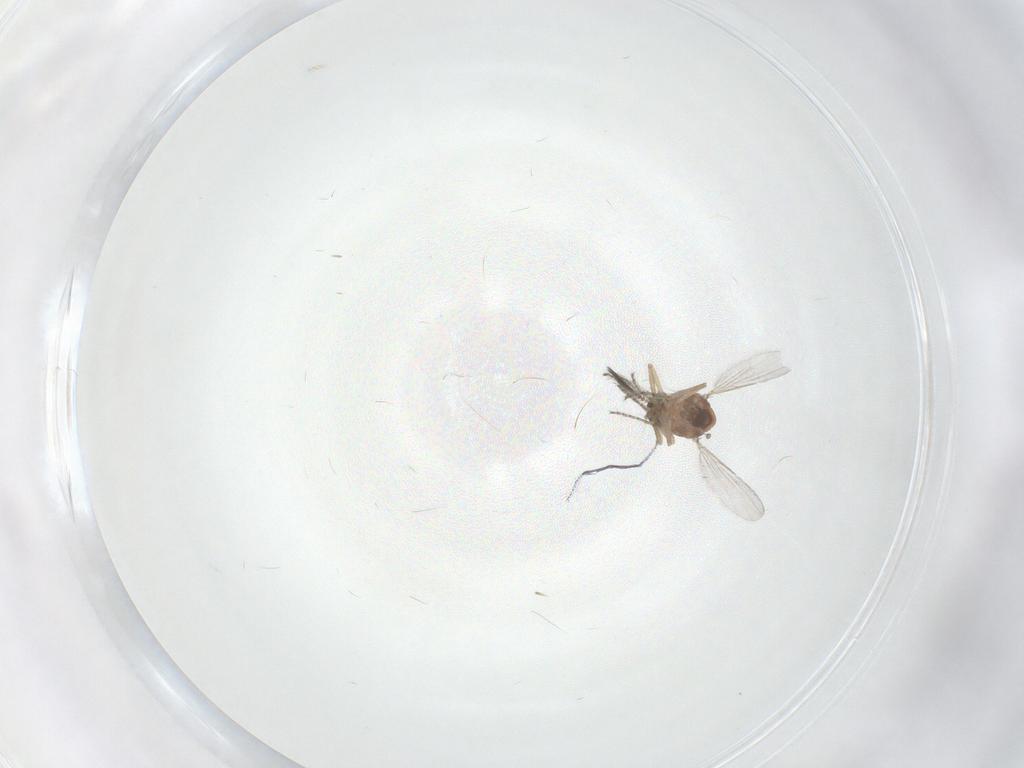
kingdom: Animalia
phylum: Arthropoda
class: Insecta
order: Diptera
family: Ceratopogonidae
